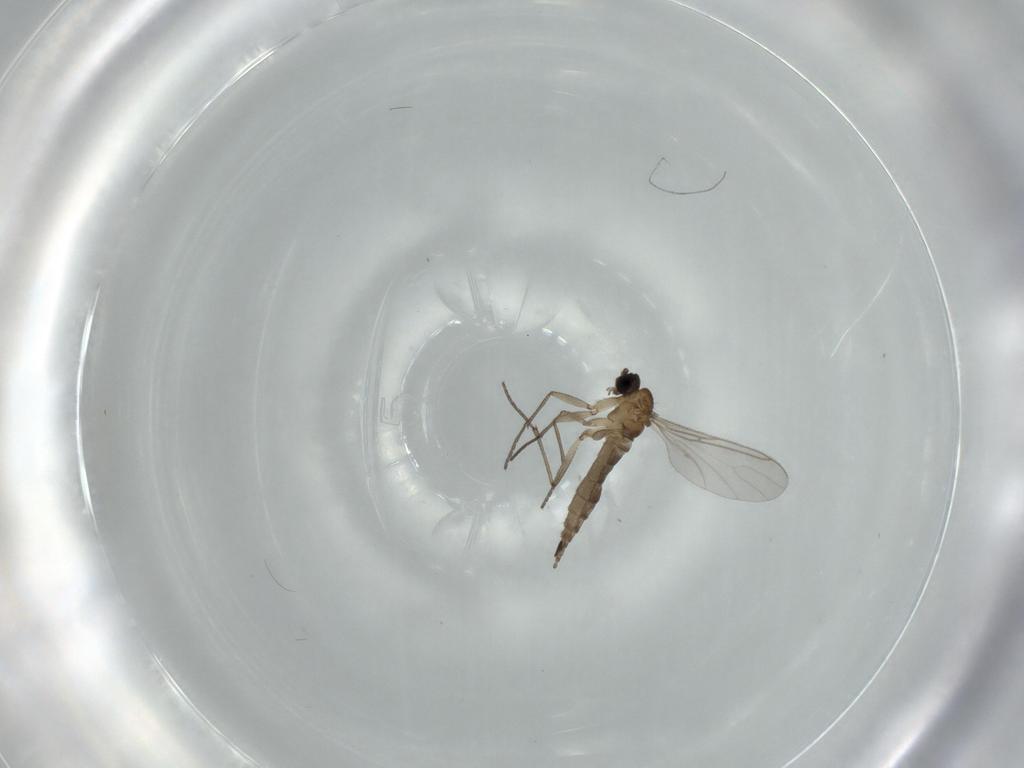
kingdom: Animalia
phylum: Arthropoda
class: Insecta
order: Diptera
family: Sciaridae
